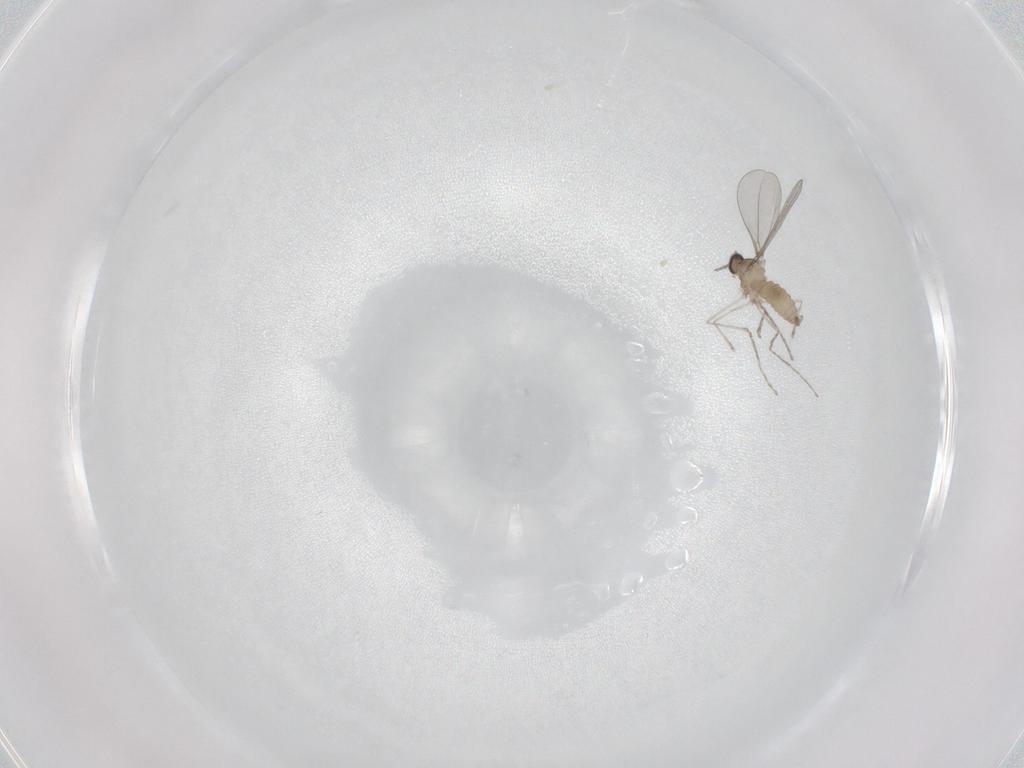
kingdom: Animalia
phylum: Arthropoda
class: Insecta
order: Diptera
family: Cecidomyiidae
